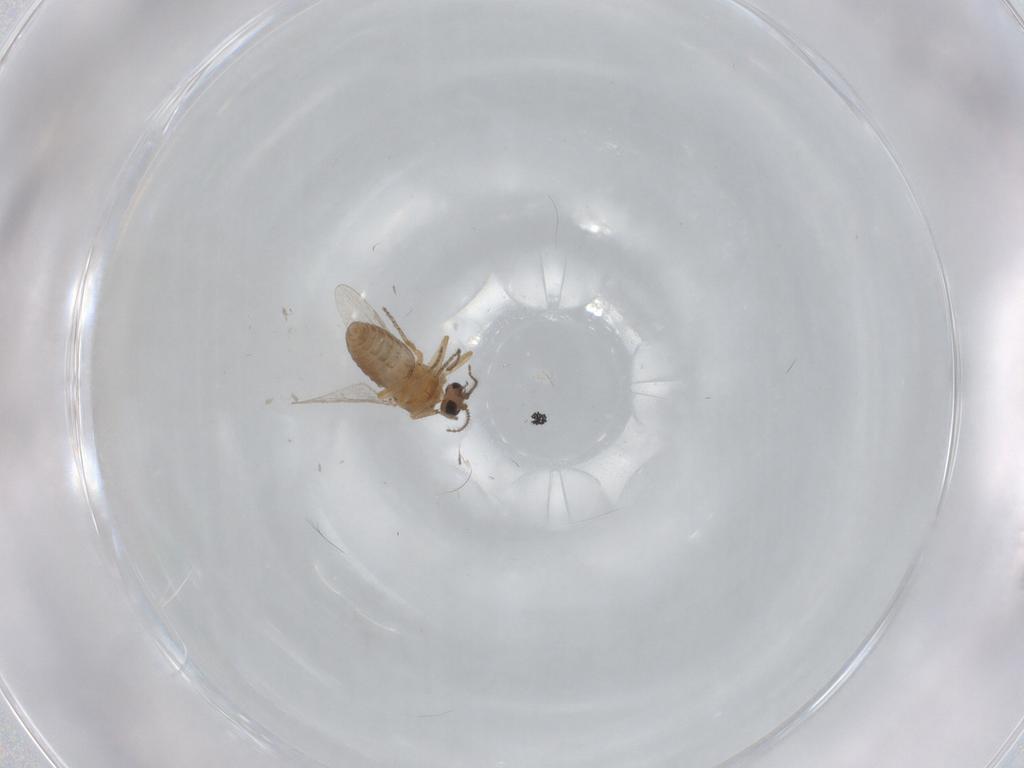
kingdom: Animalia
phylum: Arthropoda
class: Insecta
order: Diptera
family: Ceratopogonidae
